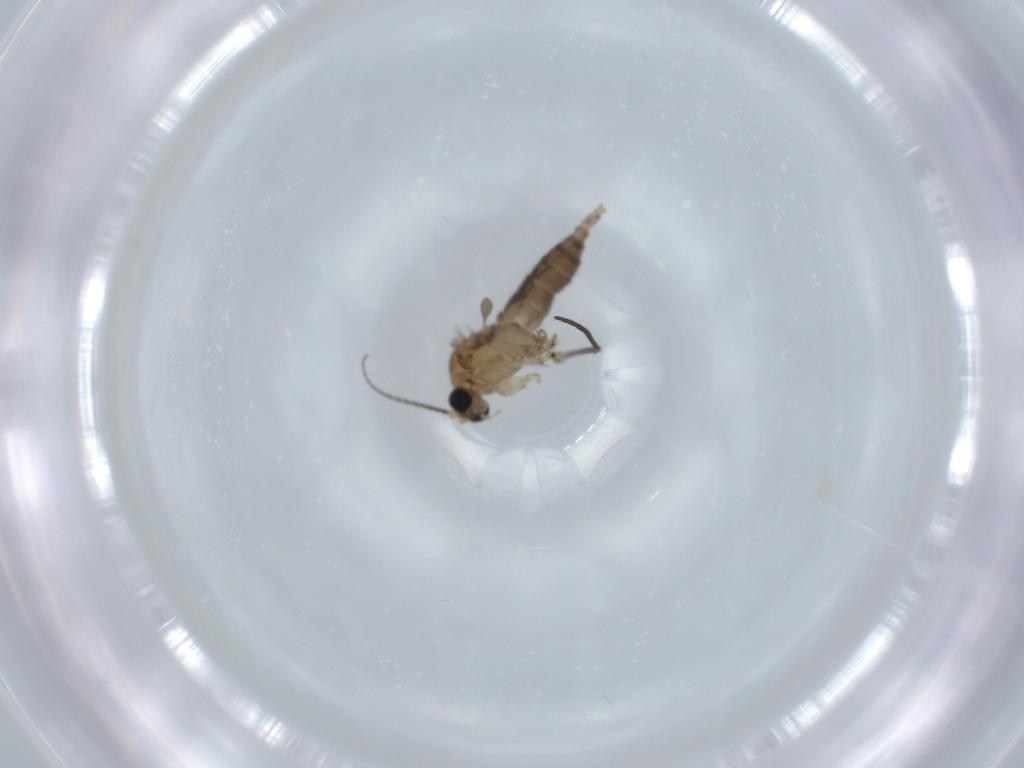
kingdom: Animalia
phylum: Arthropoda
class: Insecta
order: Diptera
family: Sciaridae
